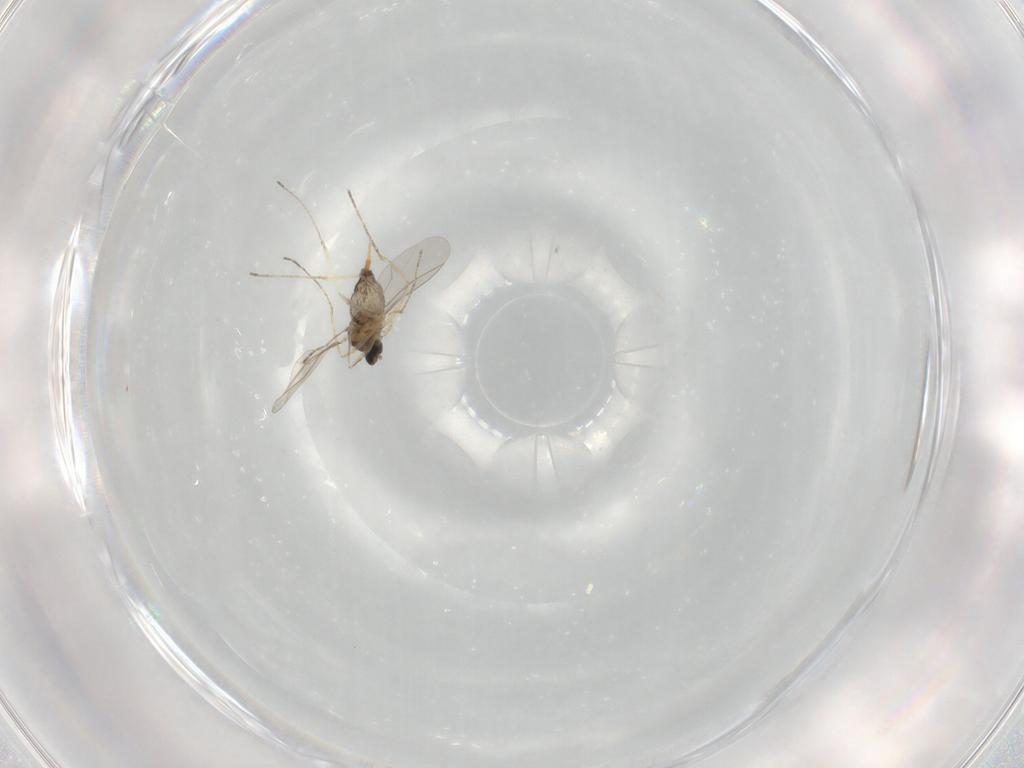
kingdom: Animalia
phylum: Arthropoda
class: Insecta
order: Diptera
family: Cecidomyiidae
